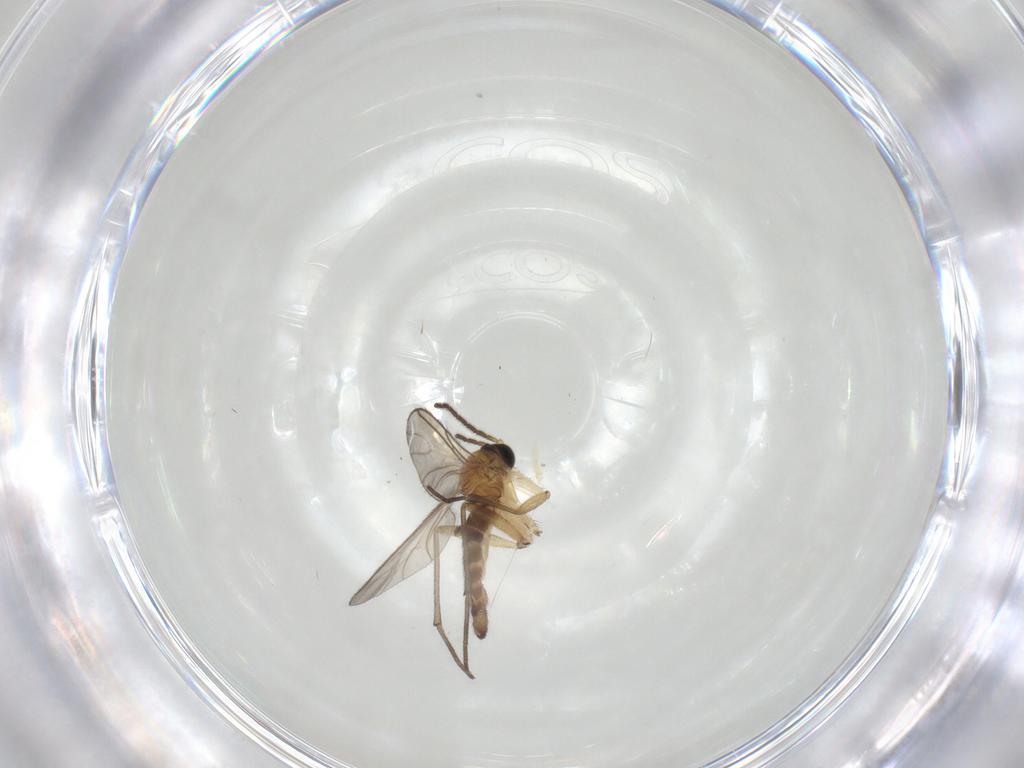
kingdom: Animalia
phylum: Arthropoda
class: Insecta
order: Diptera
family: Sciaridae
